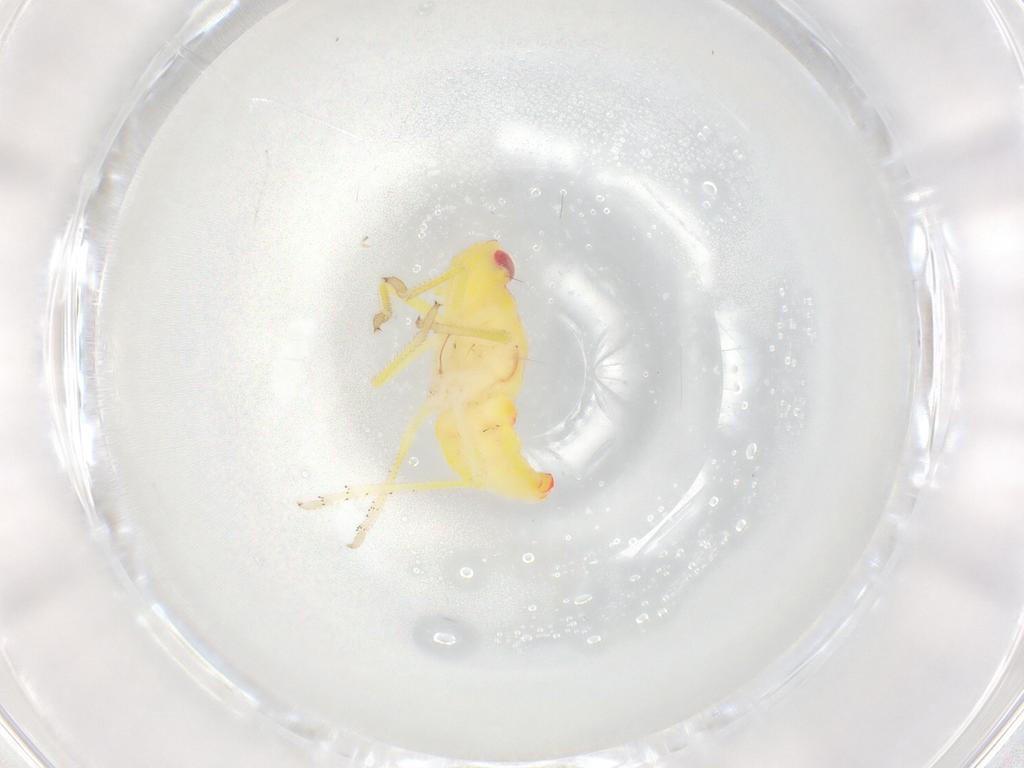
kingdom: Animalia
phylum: Arthropoda
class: Insecta
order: Hemiptera
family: Tropiduchidae
